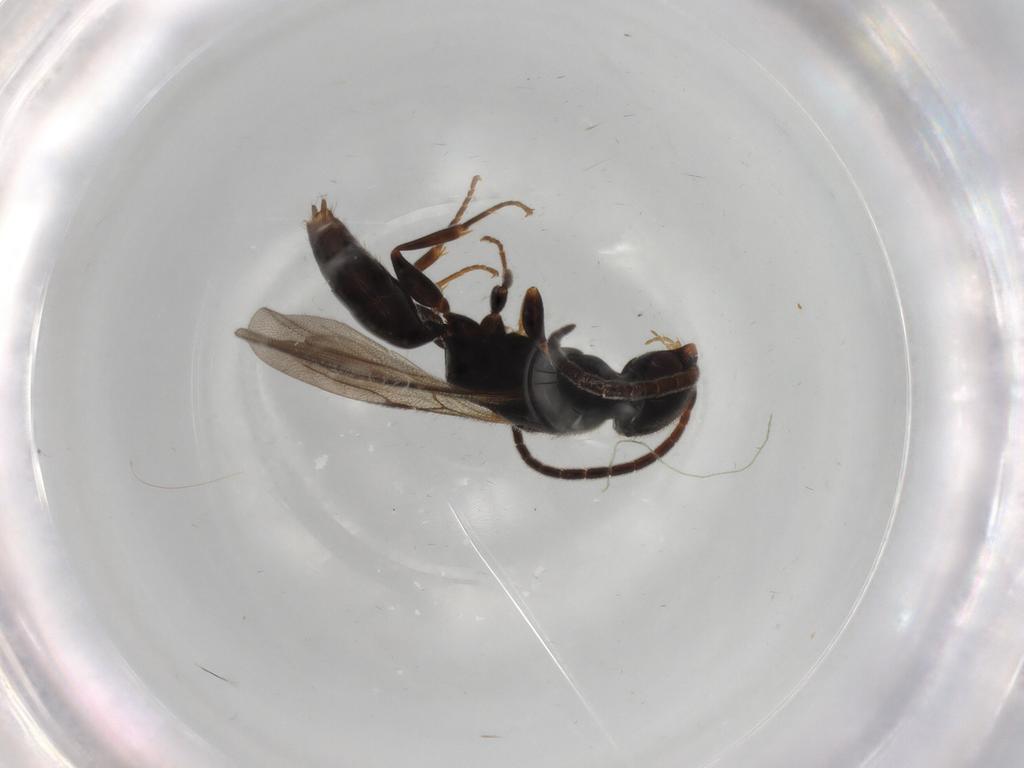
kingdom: Animalia
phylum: Arthropoda
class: Insecta
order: Hymenoptera
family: Bethylidae
